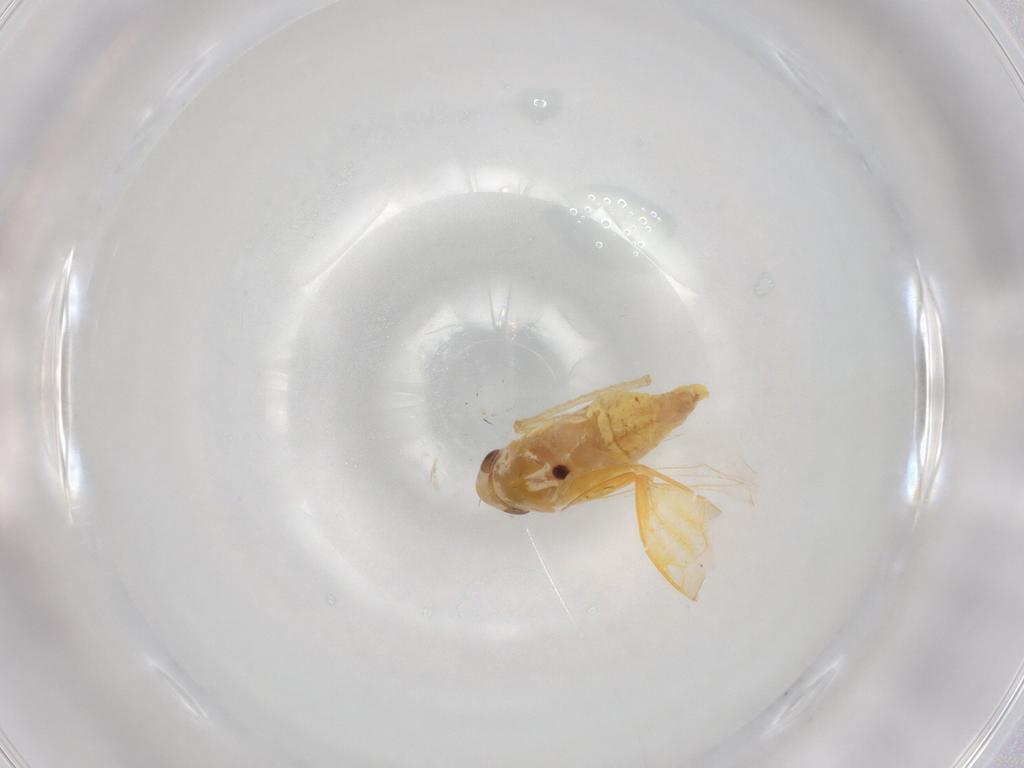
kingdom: Animalia
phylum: Arthropoda
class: Insecta
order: Hemiptera
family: Cicadellidae
